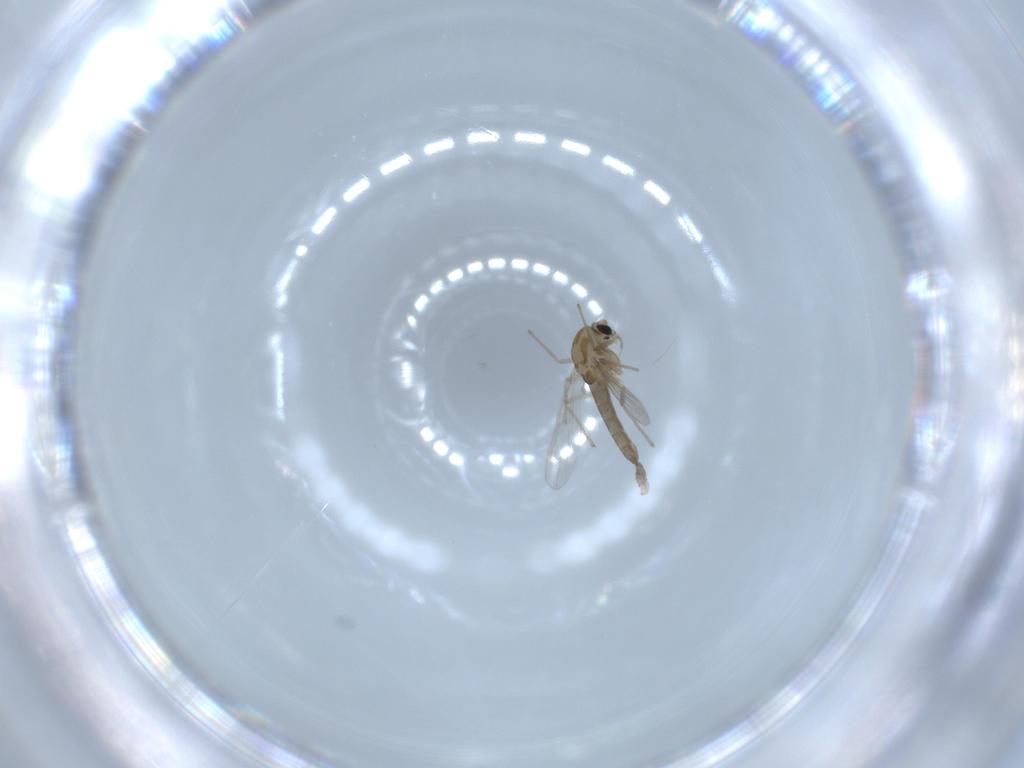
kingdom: Animalia
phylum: Arthropoda
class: Insecta
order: Diptera
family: Chironomidae
